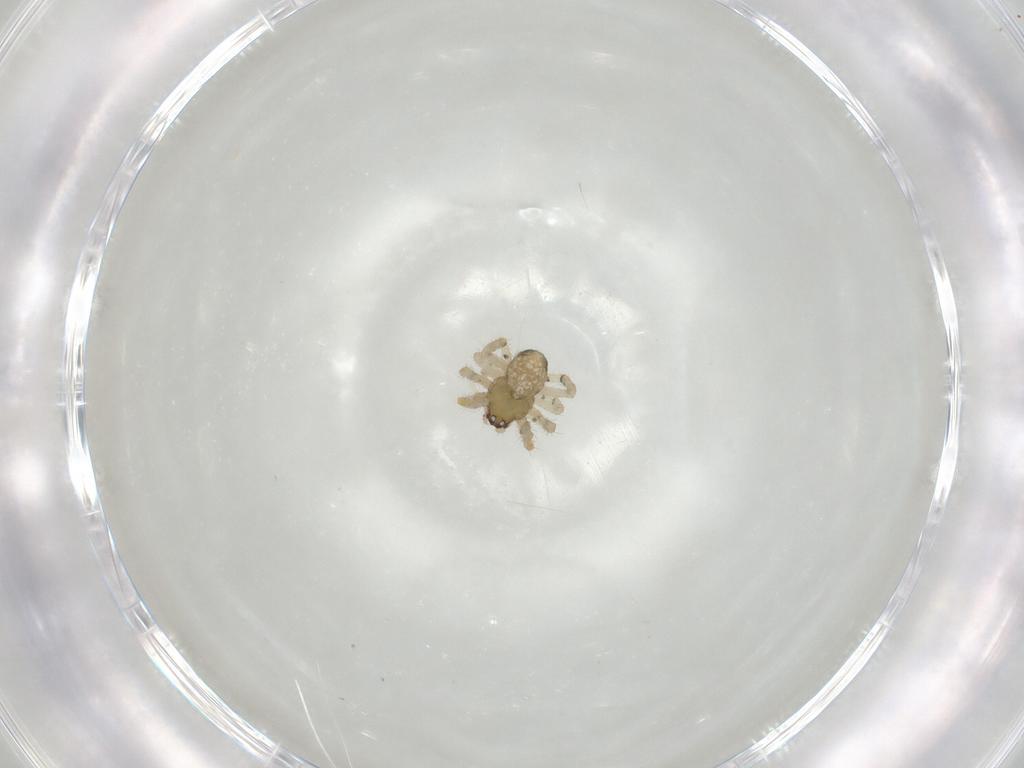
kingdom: Animalia
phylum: Arthropoda
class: Arachnida
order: Araneae
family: Theridiidae
